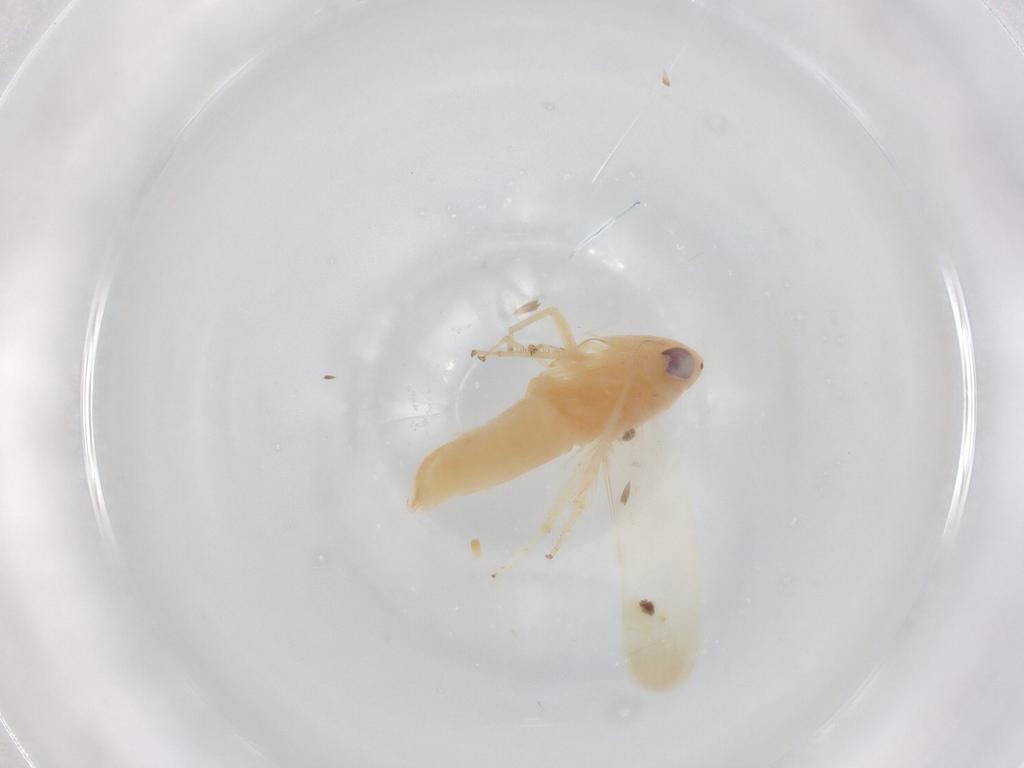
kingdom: Animalia
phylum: Arthropoda
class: Insecta
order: Hemiptera
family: Cicadellidae
